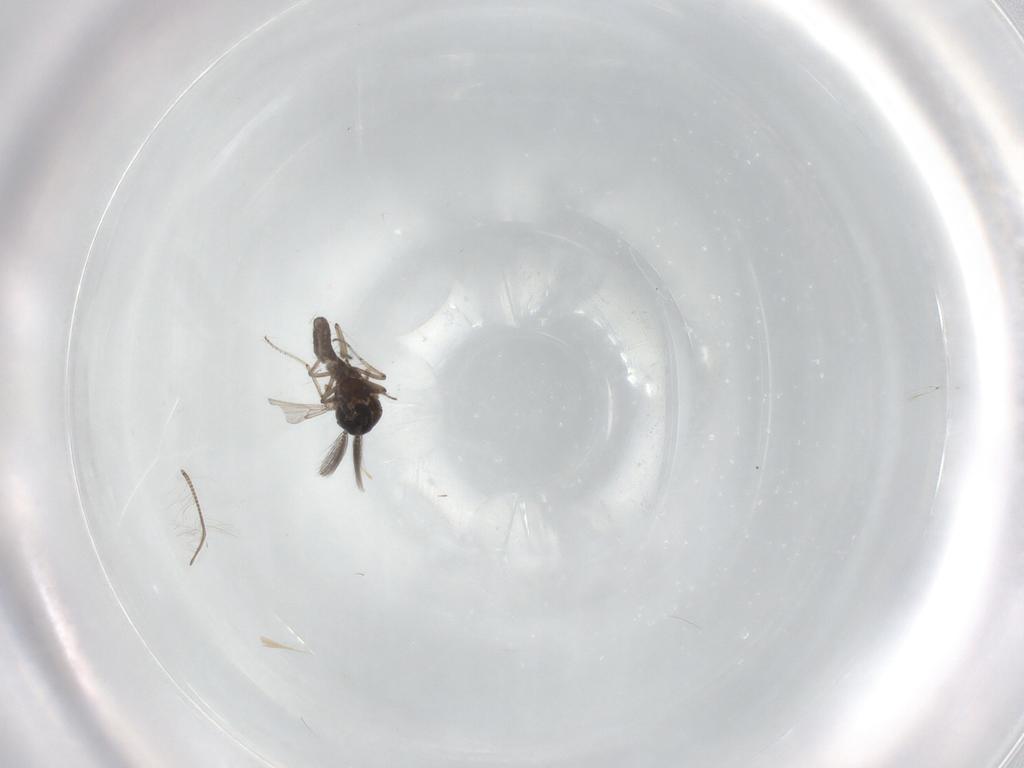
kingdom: Animalia
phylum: Arthropoda
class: Insecta
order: Diptera
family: Ceratopogonidae
